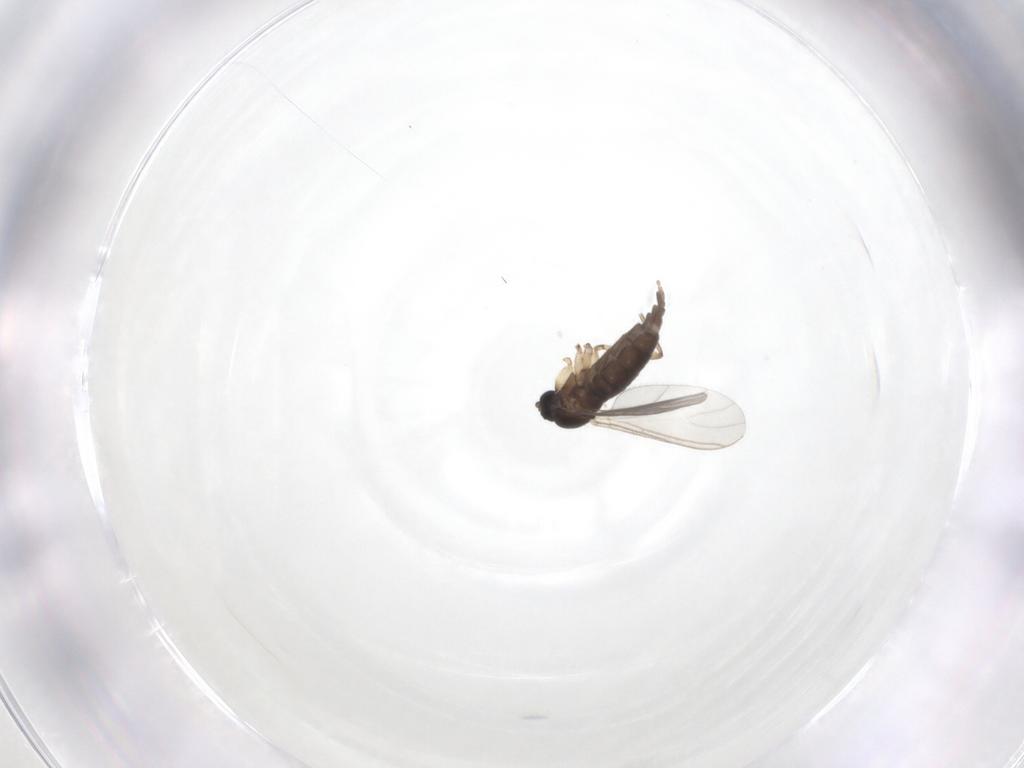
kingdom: Animalia
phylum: Arthropoda
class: Insecta
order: Diptera
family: Sciaridae
